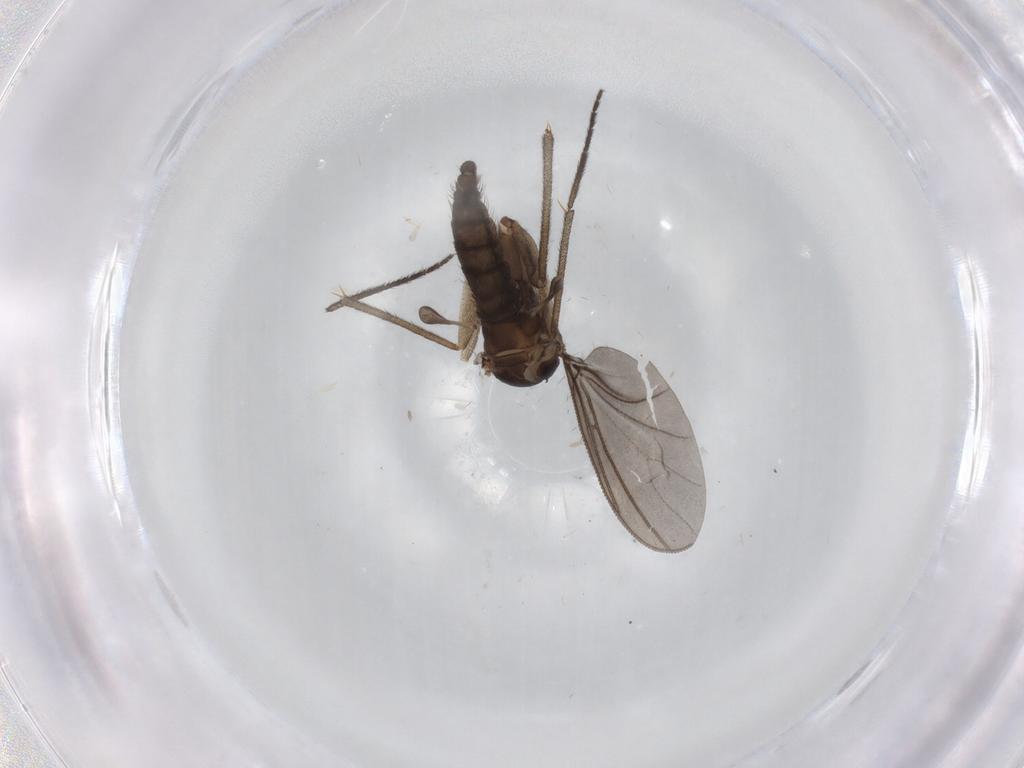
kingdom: Animalia
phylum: Arthropoda
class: Insecta
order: Diptera
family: Sciaridae
